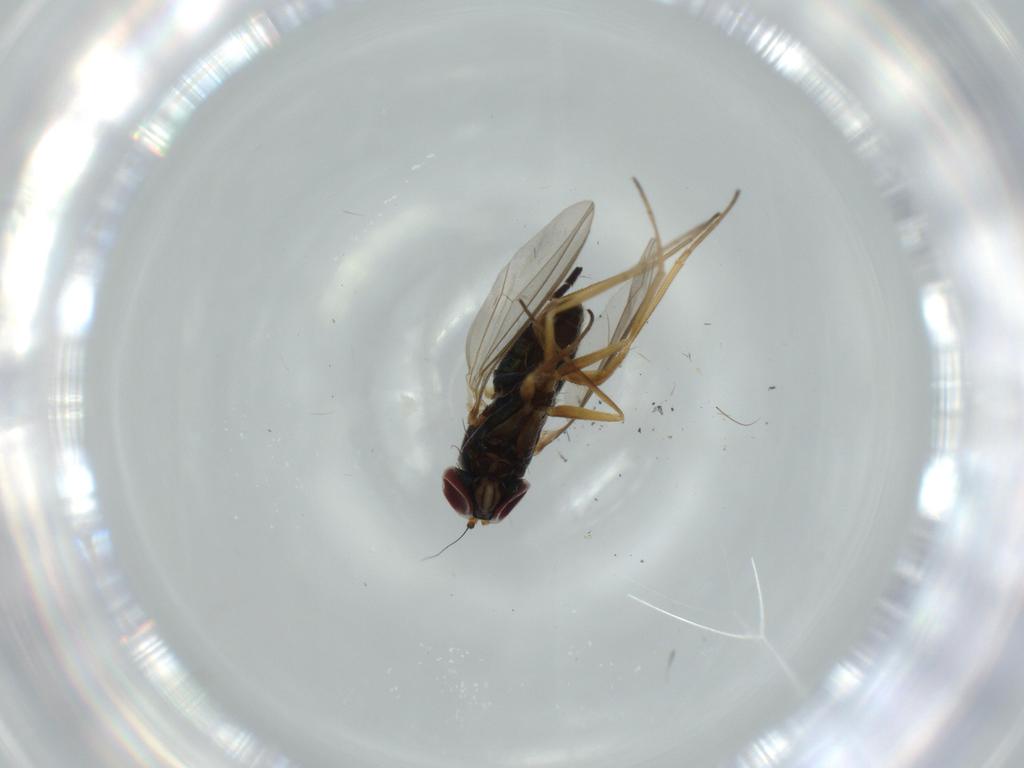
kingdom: Animalia
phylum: Arthropoda
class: Insecta
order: Diptera
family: Dolichopodidae
